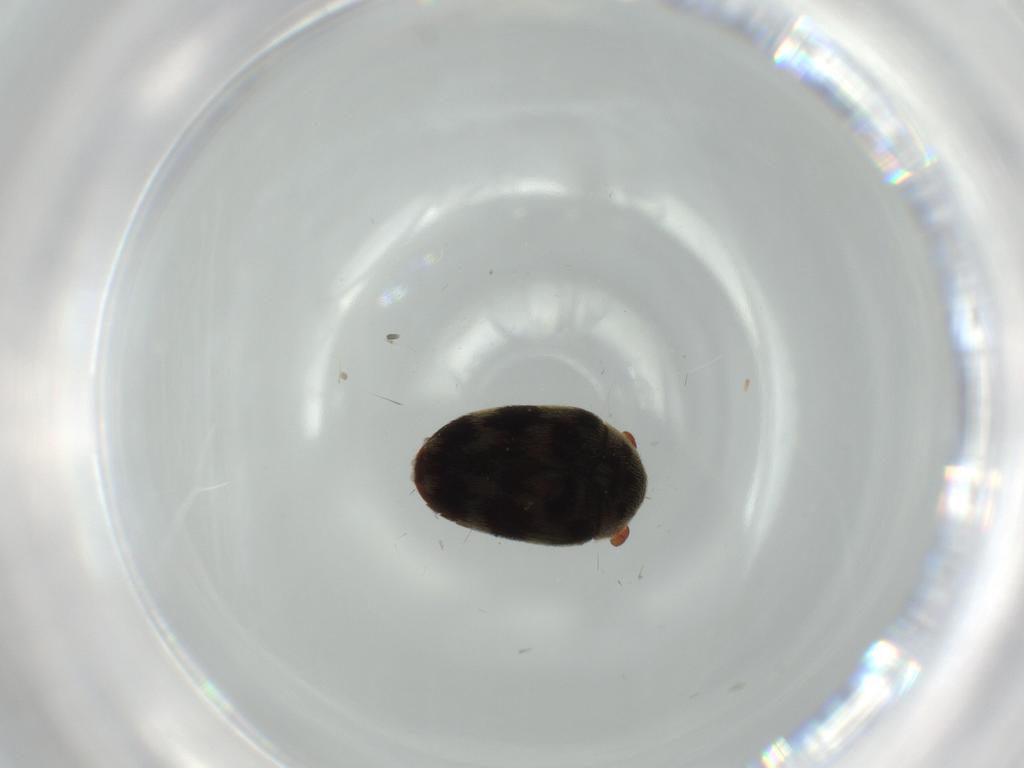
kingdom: Animalia
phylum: Arthropoda
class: Insecta
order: Coleoptera
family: Dermestidae
